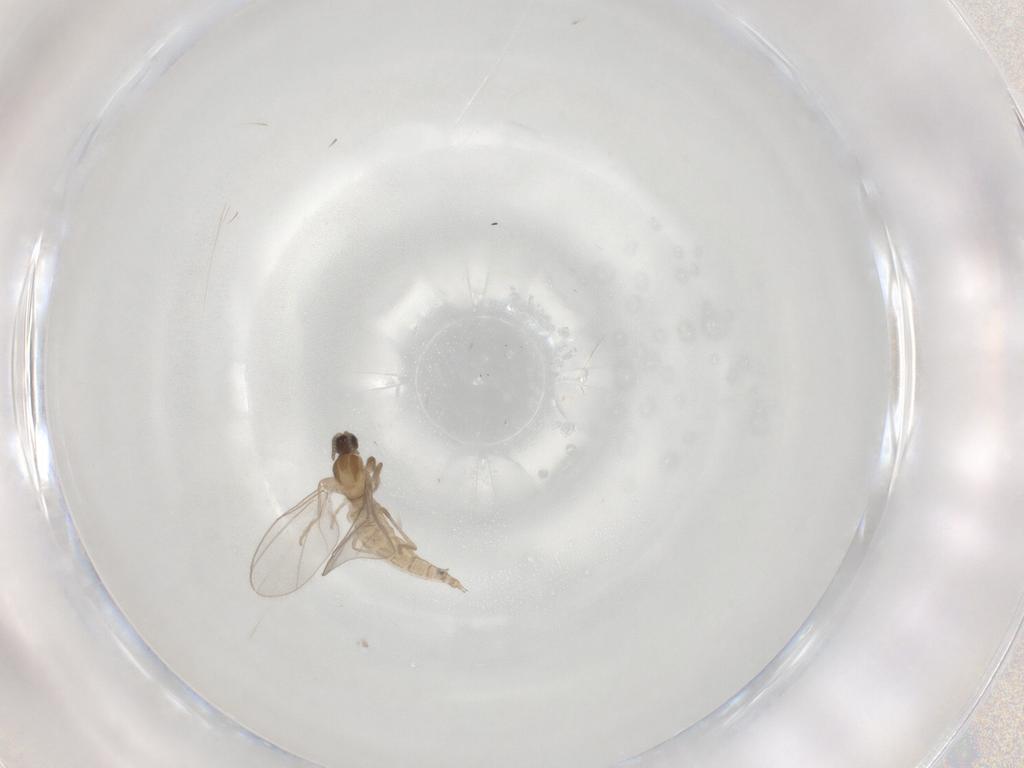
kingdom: Animalia
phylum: Arthropoda
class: Insecta
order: Diptera
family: Cecidomyiidae
